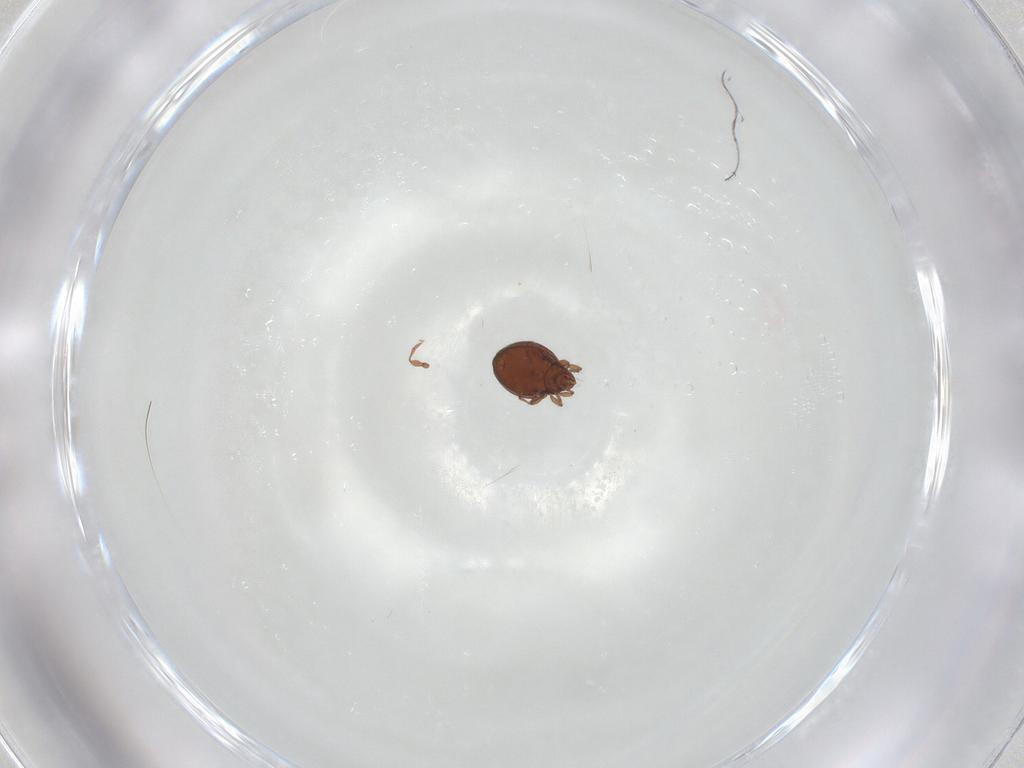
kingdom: Animalia
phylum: Arthropoda
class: Arachnida
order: Sarcoptiformes
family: Oribatulidae
